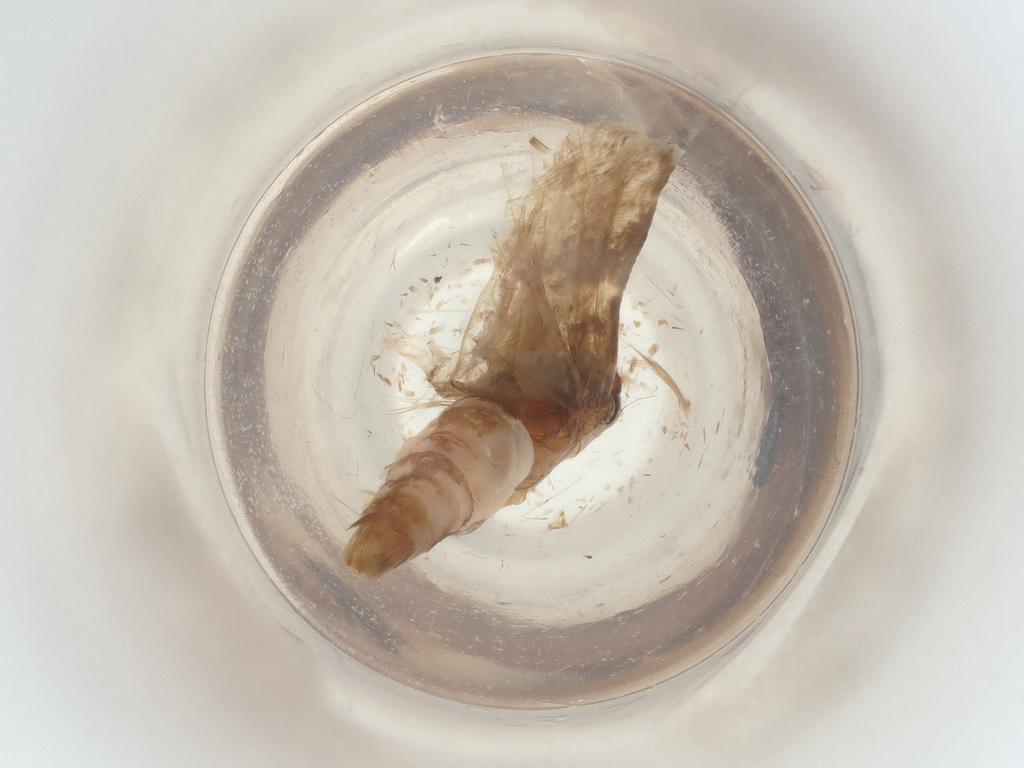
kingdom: Animalia
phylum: Arthropoda
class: Insecta
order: Lepidoptera
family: Gelechiidae
